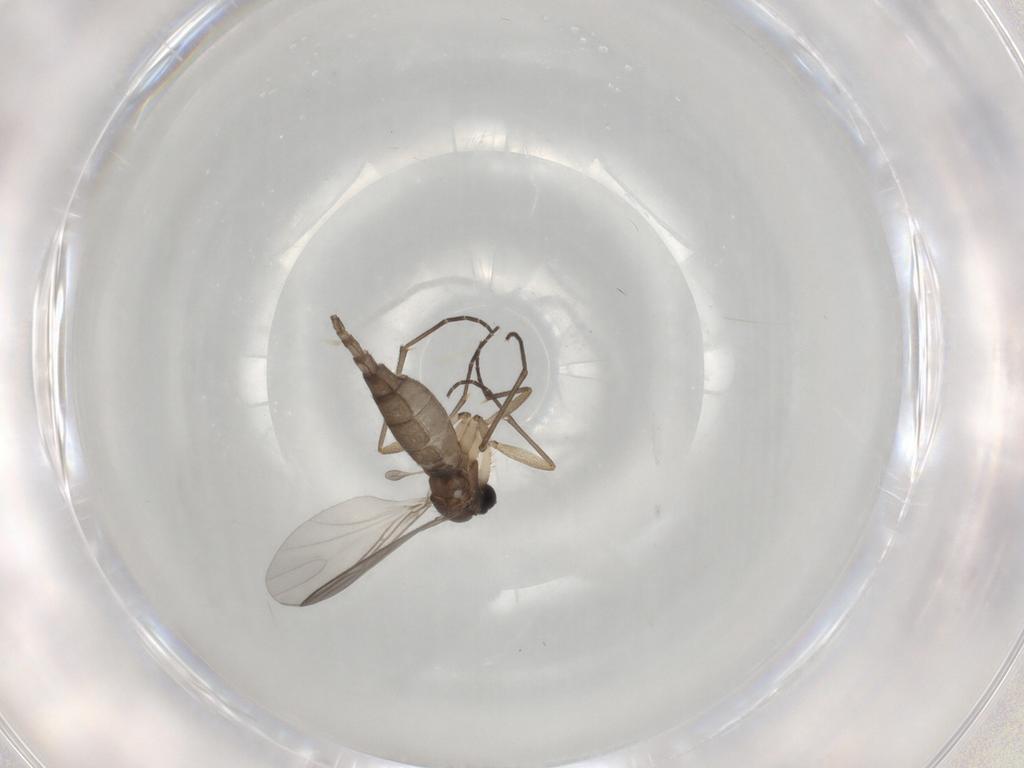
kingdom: Animalia
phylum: Arthropoda
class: Insecta
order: Diptera
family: Sciaridae
